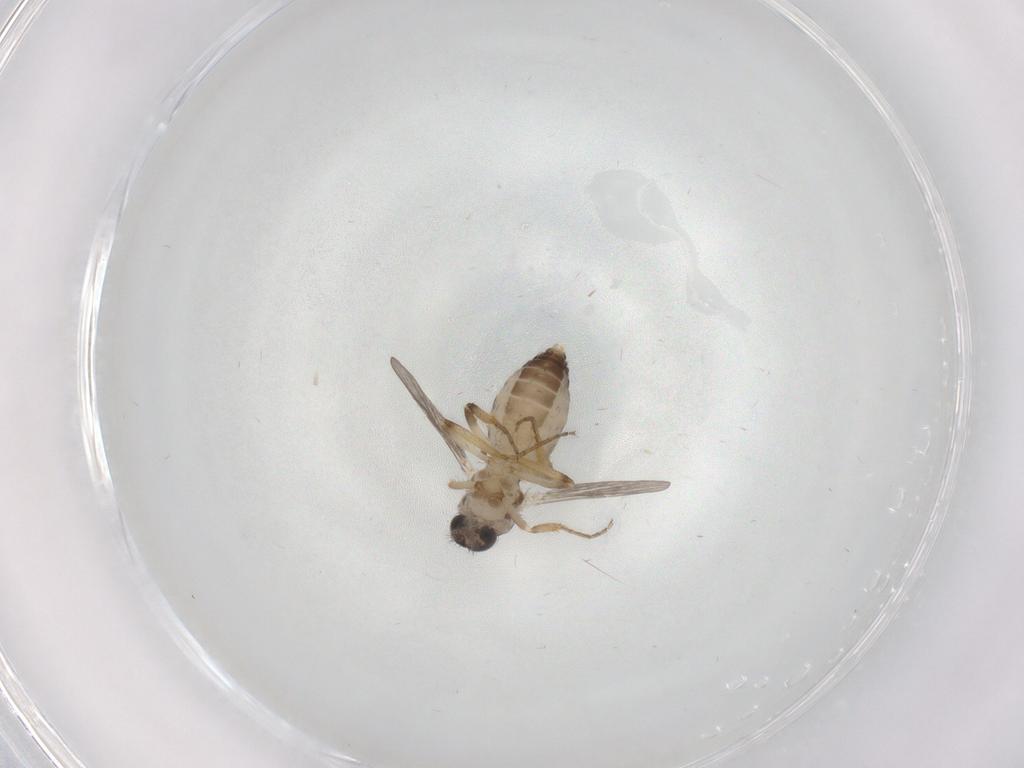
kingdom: Animalia
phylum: Arthropoda
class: Insecta
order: Diptera
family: Ceratopogonidae
